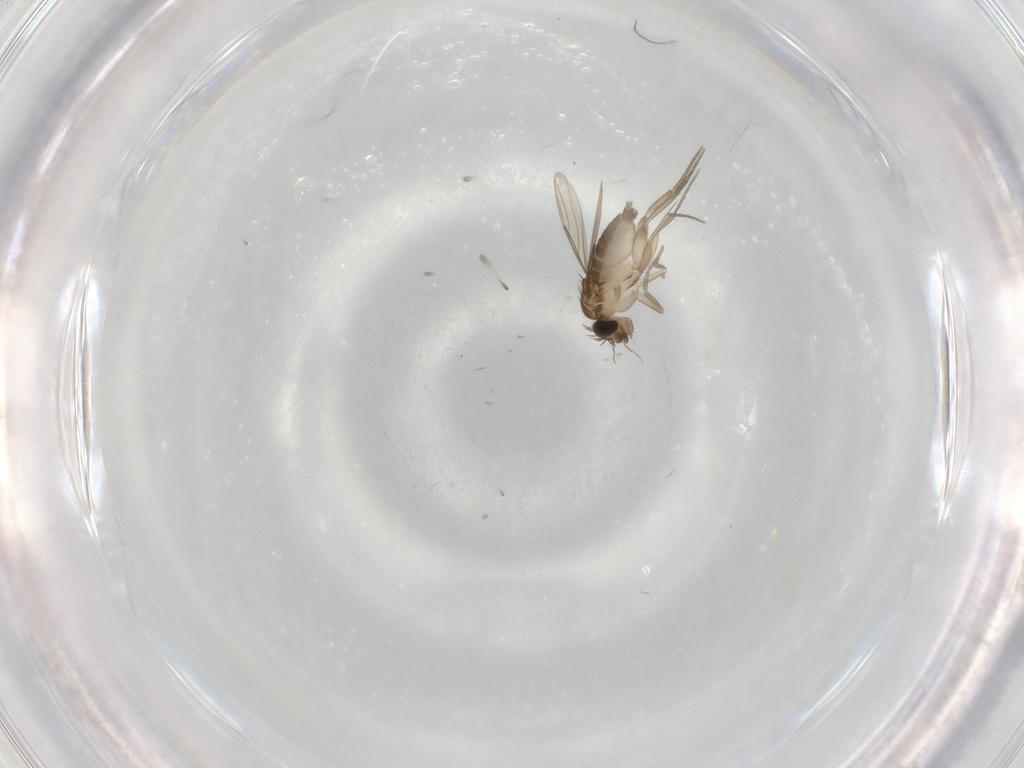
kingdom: Animalia
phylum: Arthropoda
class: Insecta
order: Diptera
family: Phoridae
